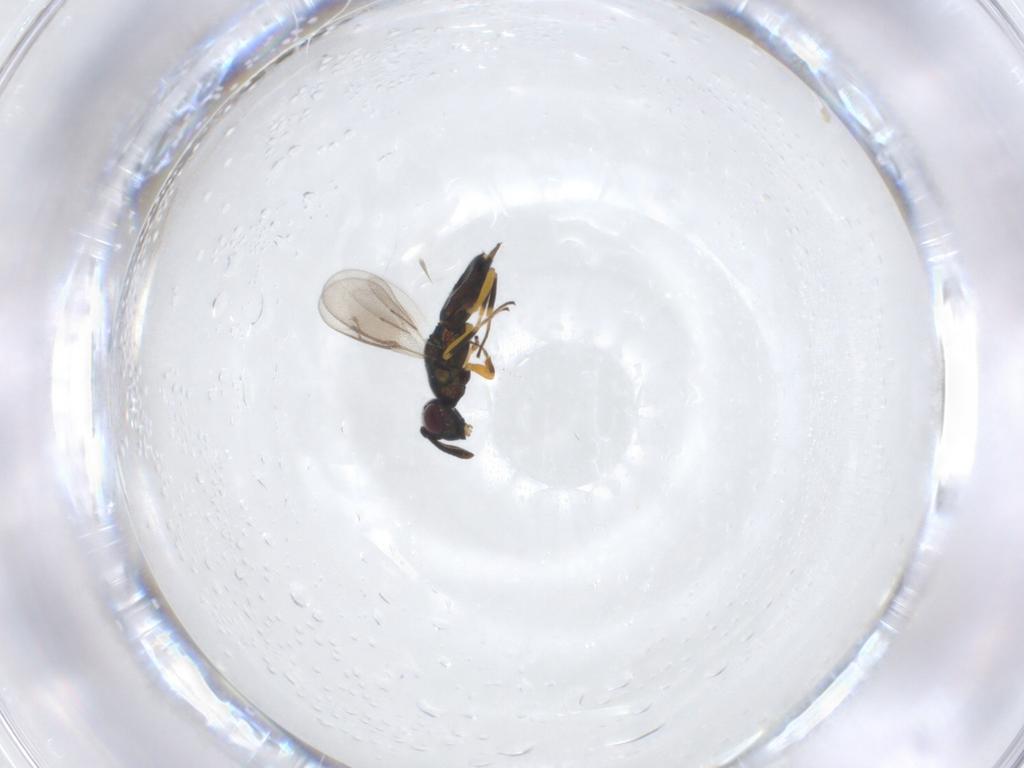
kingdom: Animalia
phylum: Arthropoda
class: Insecta
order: Hymenoptera
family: Eupelmidae
